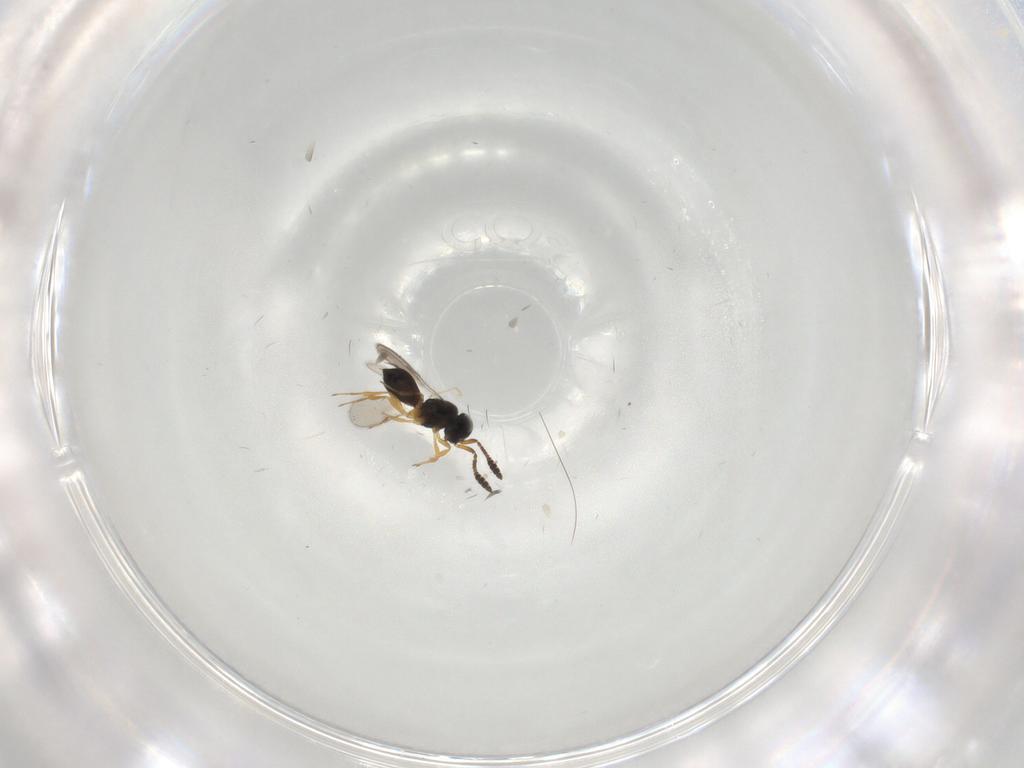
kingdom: Animalia
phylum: Arthropoda
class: Insecta
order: Hymenoptera
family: Scelionidae
